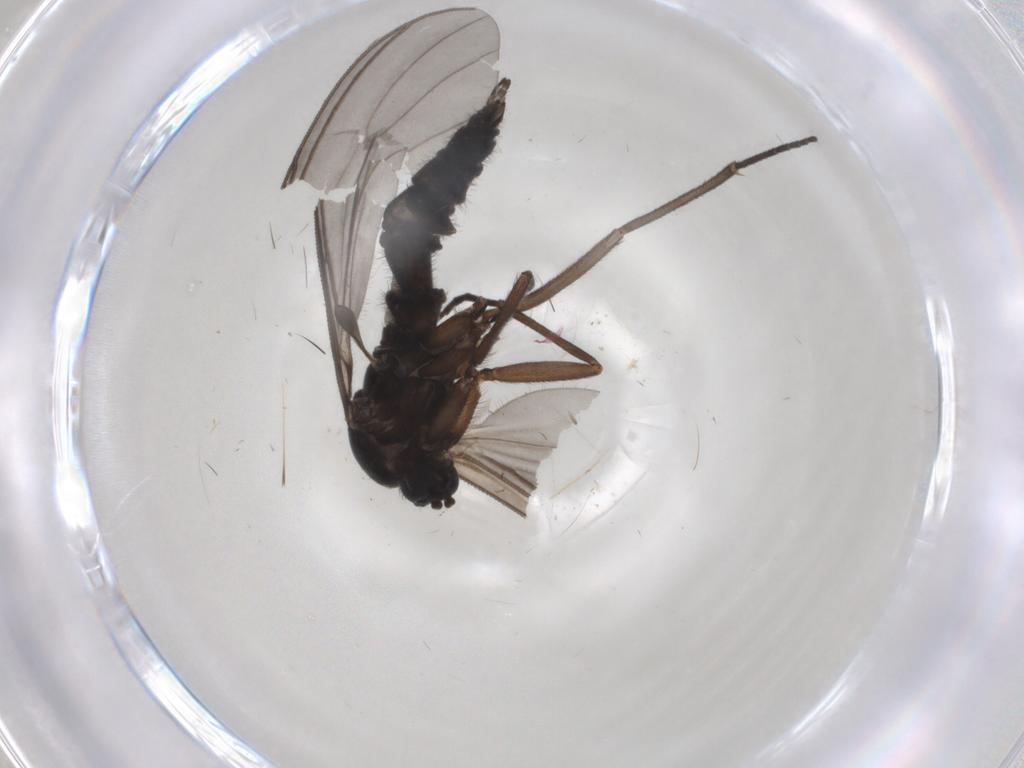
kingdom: Animalia
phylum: Arthropoda
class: Insecta
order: Diptera
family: Sciaridae
